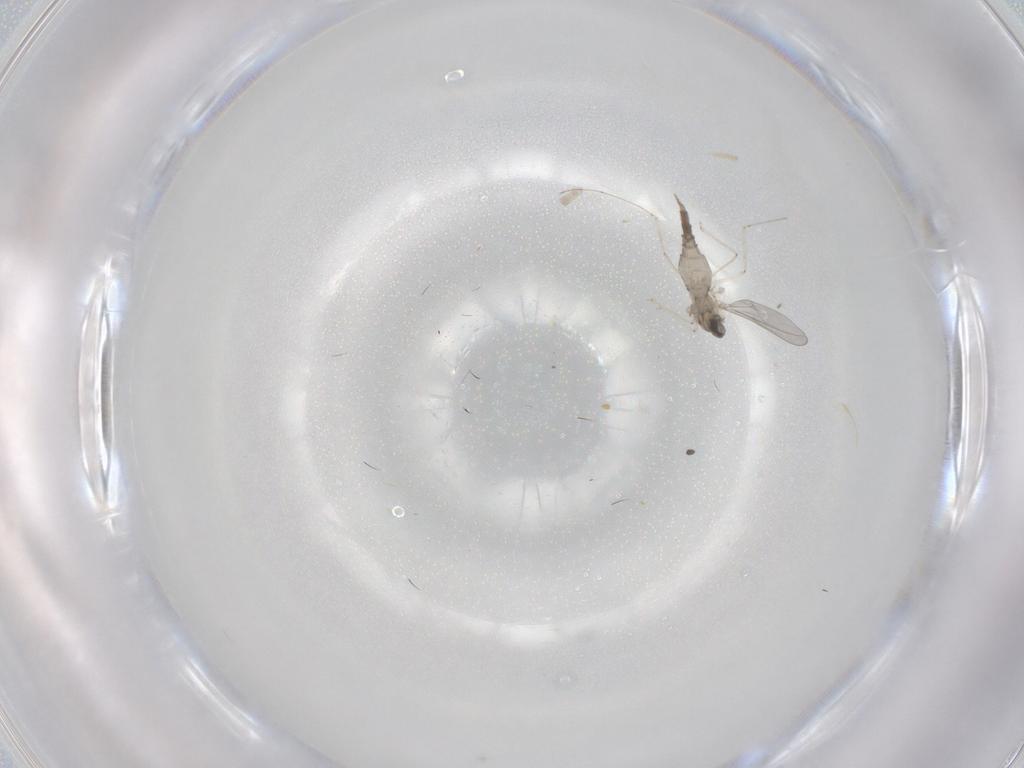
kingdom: Animalia
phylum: Arthropoda
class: Insecta
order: Diptera
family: Cecidomyiidae
